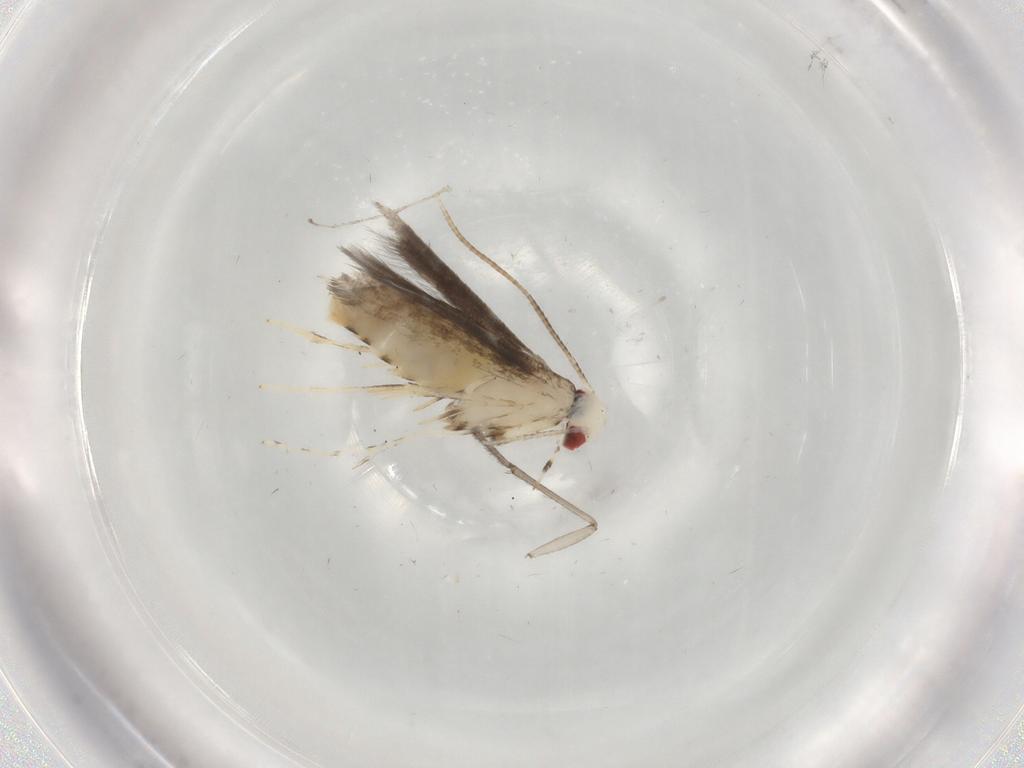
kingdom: Animalia
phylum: Arthropoda
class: Insecta
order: Lepidoptera
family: Gracillariidae
